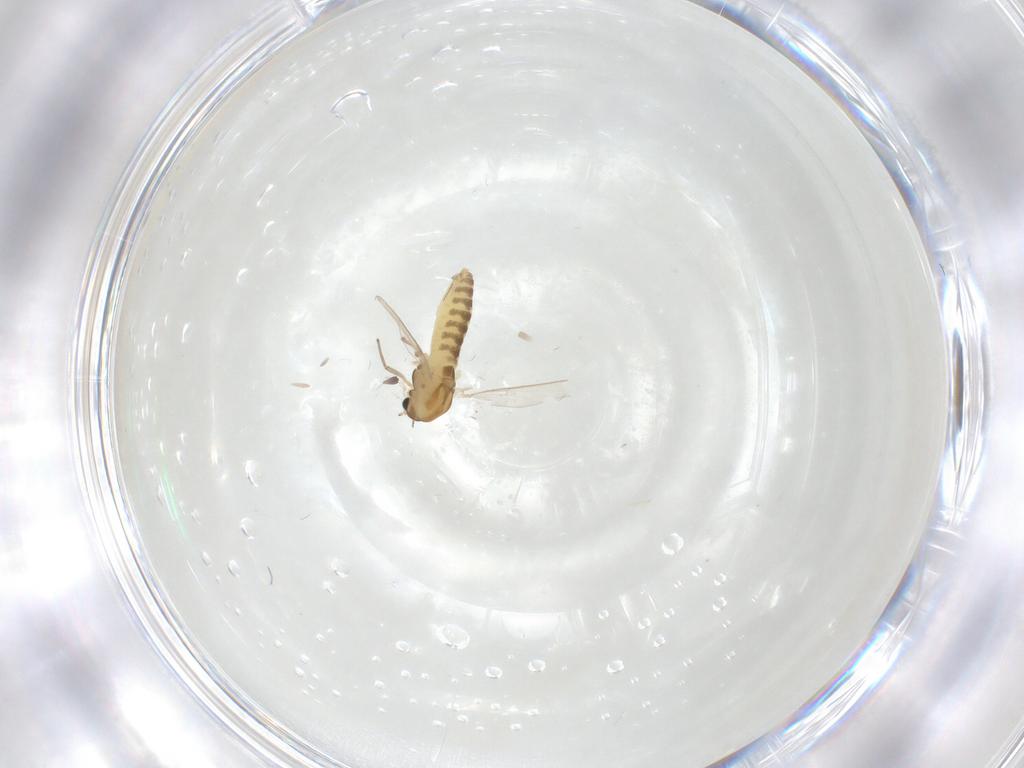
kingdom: Animalia
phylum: Arthropoda
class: Insecta
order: Diptera
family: Chironomidae
